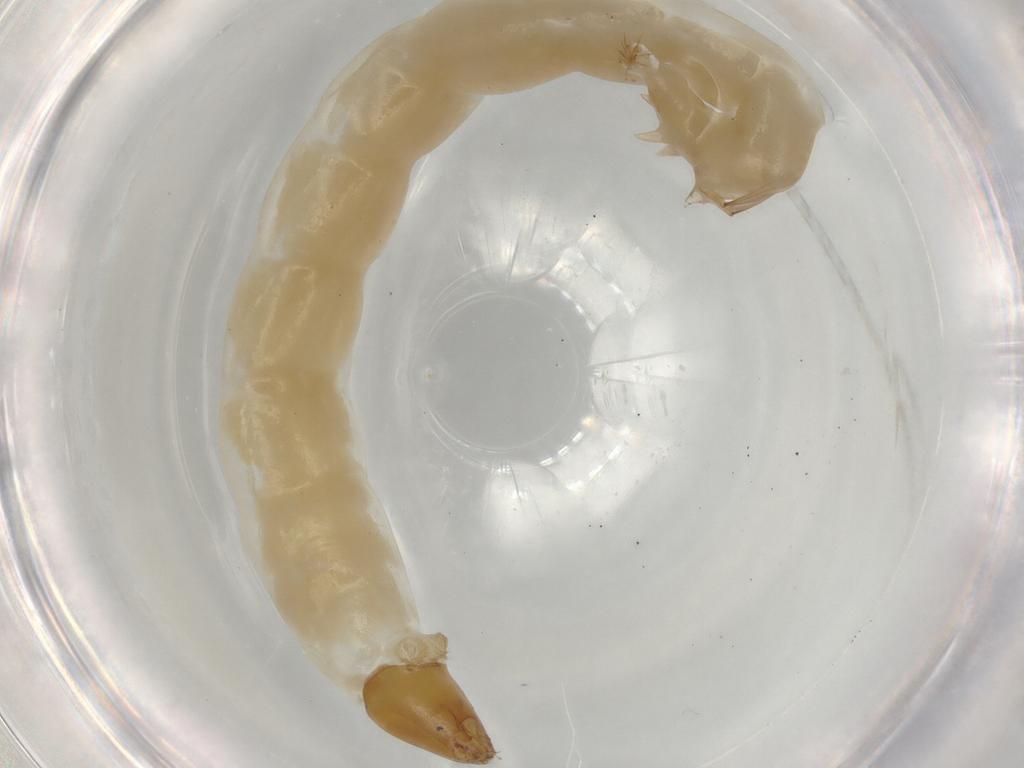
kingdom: Animalia
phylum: Arthropoda
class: Insecta
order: Diptera
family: Chironomidae
